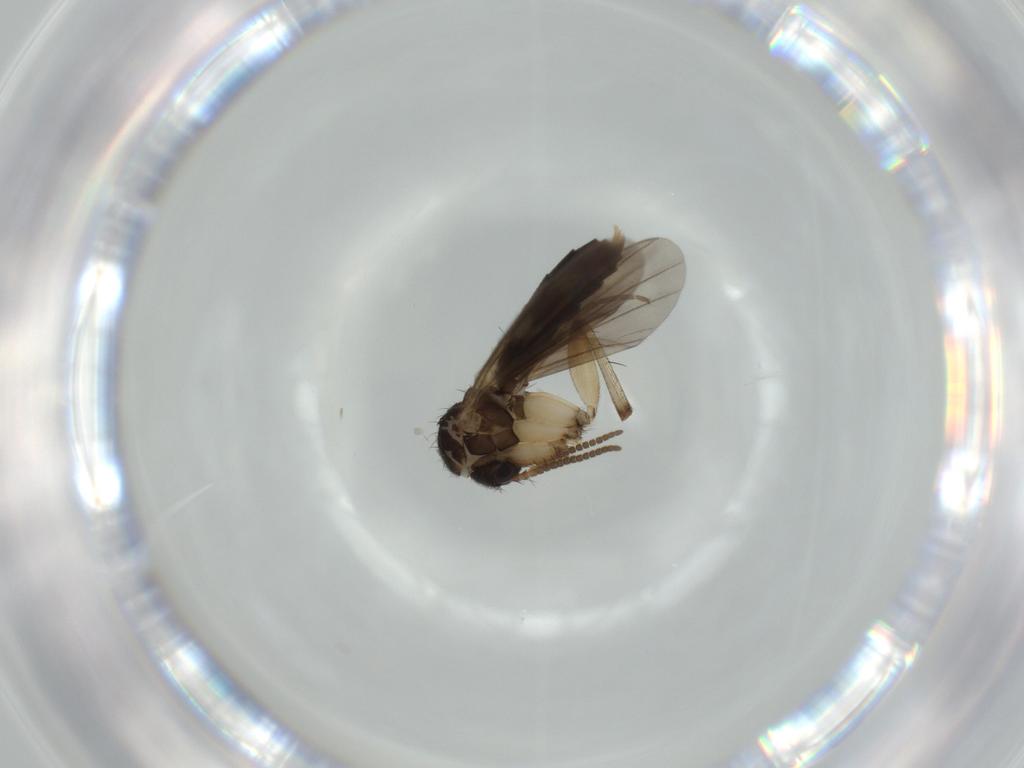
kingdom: Animalia
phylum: Arthropoda
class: Insecta
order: Diptera
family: Mycetophilidae
